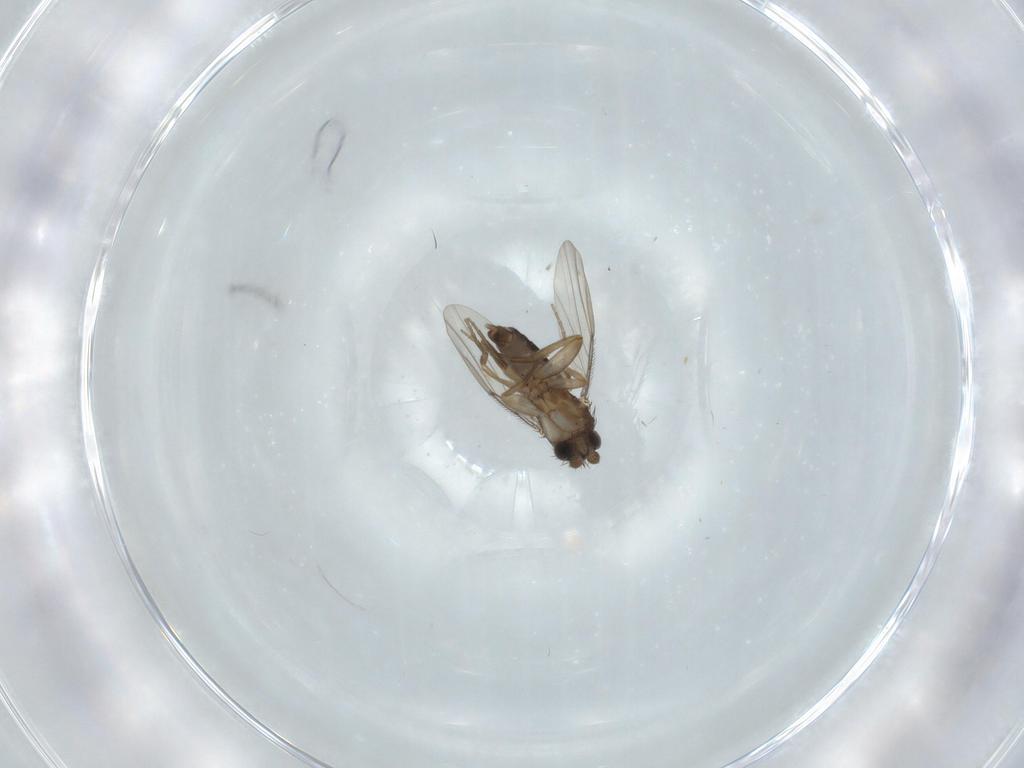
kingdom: Animalia
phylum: Arthropoda
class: Insecta
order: Diptera
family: Phoridae
